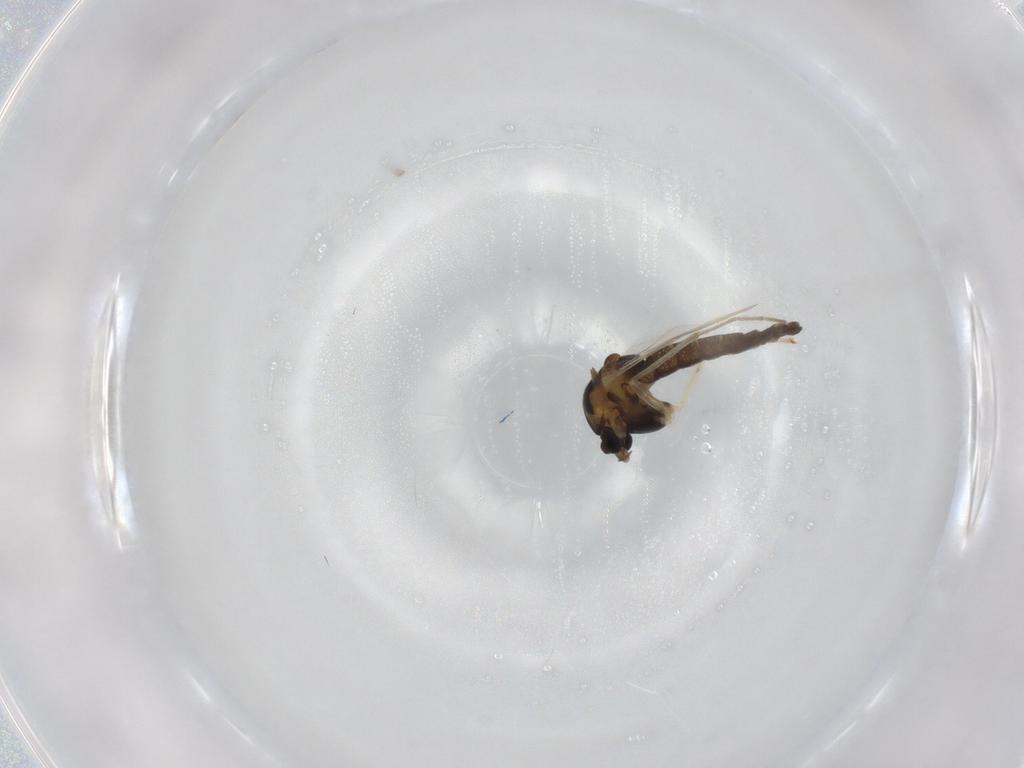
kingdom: Animalia
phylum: Arthropoda
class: Insecta
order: Diptera
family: Chironomidae
